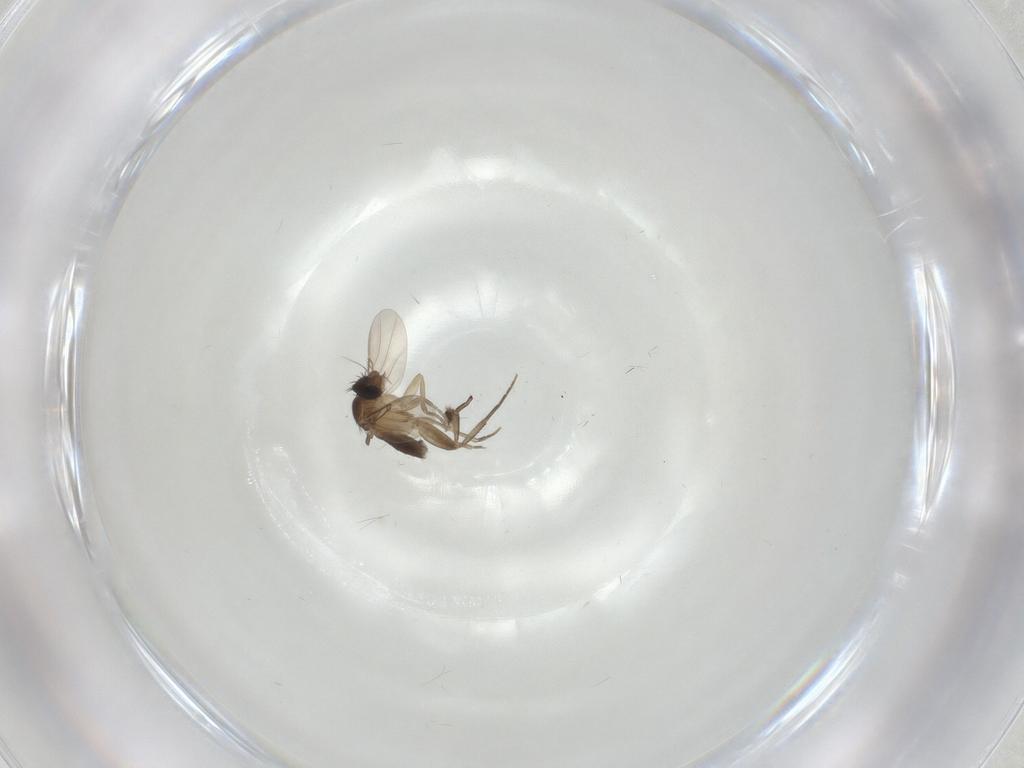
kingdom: Animalia
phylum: Arthropoda
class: Insecta
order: Diptera
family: Phoridae
